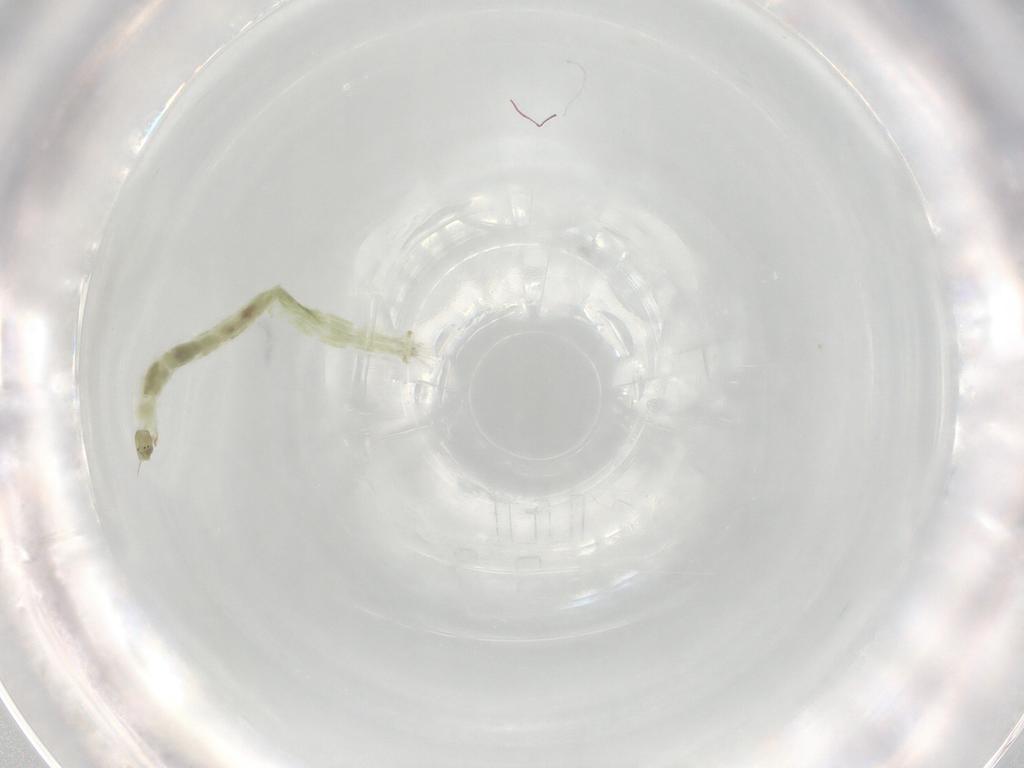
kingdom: Animalia
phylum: Arthropoda
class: Insecta
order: Diptera
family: Chironomidae
